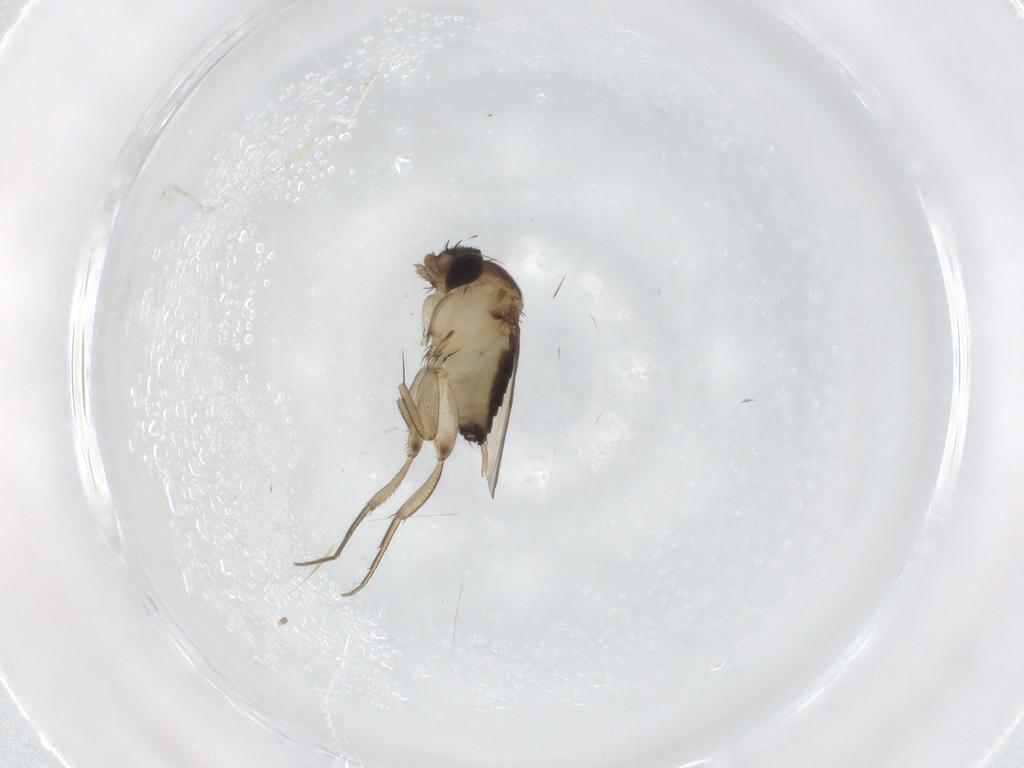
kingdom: Animalia
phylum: Arthropoda
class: Insecta
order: Diptera
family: Phoridae
